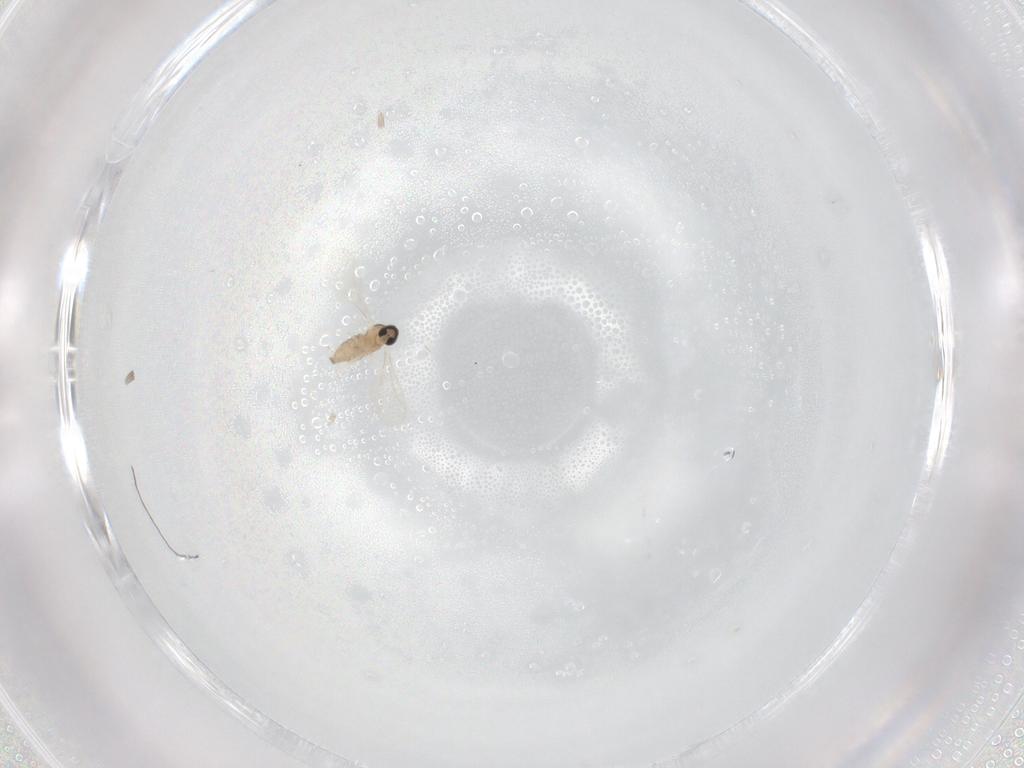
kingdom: Animalia
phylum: Arthropoda
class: Insecta
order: Diptera
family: Cecidomyiidae
